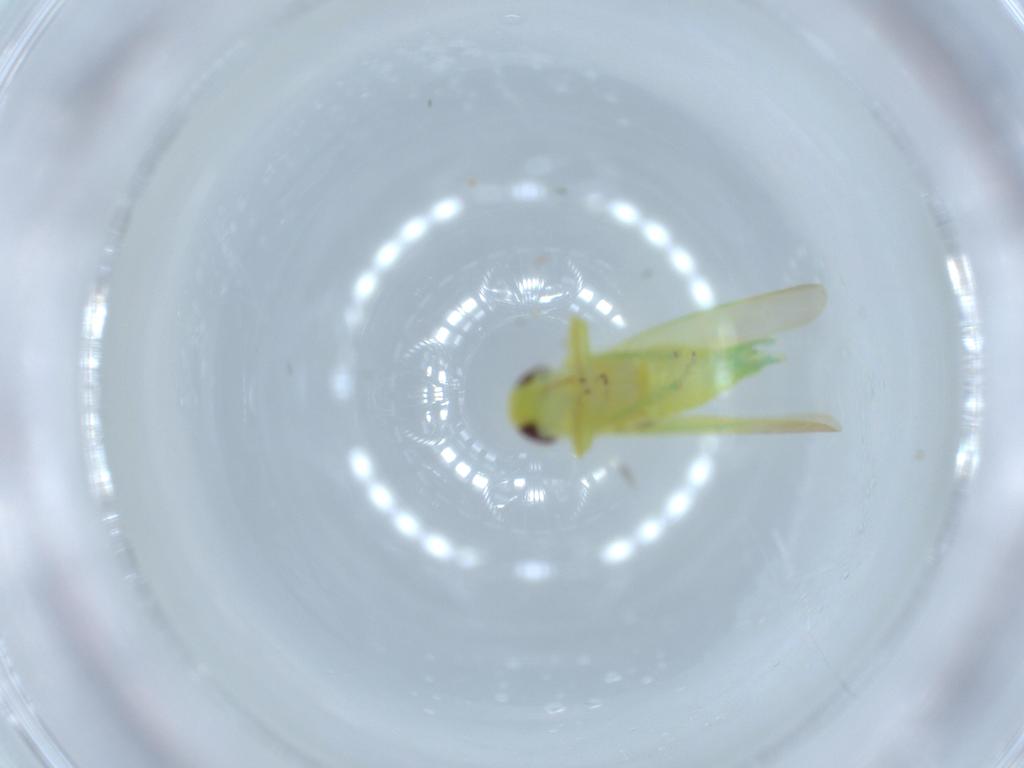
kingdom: Animalia
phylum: Arthropoda
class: Insecta
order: Hemiptera
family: Cicadellidae
